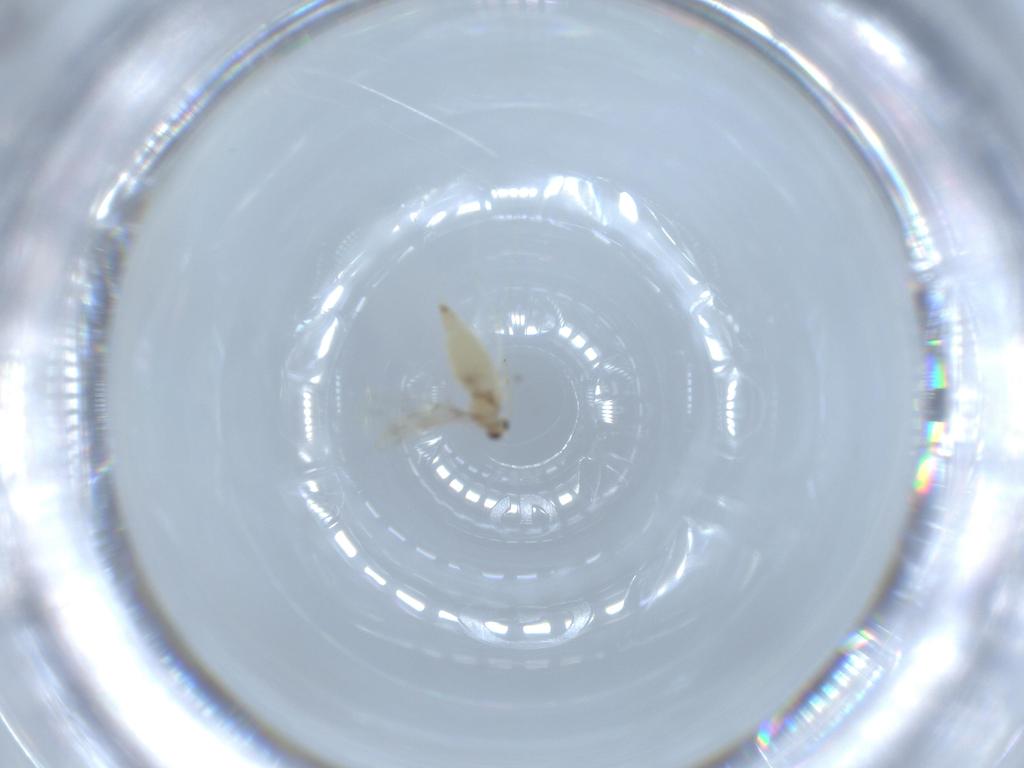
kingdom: Animalia
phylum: Arthropoda
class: Insecta
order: Diptera
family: Cecidomyiidae
